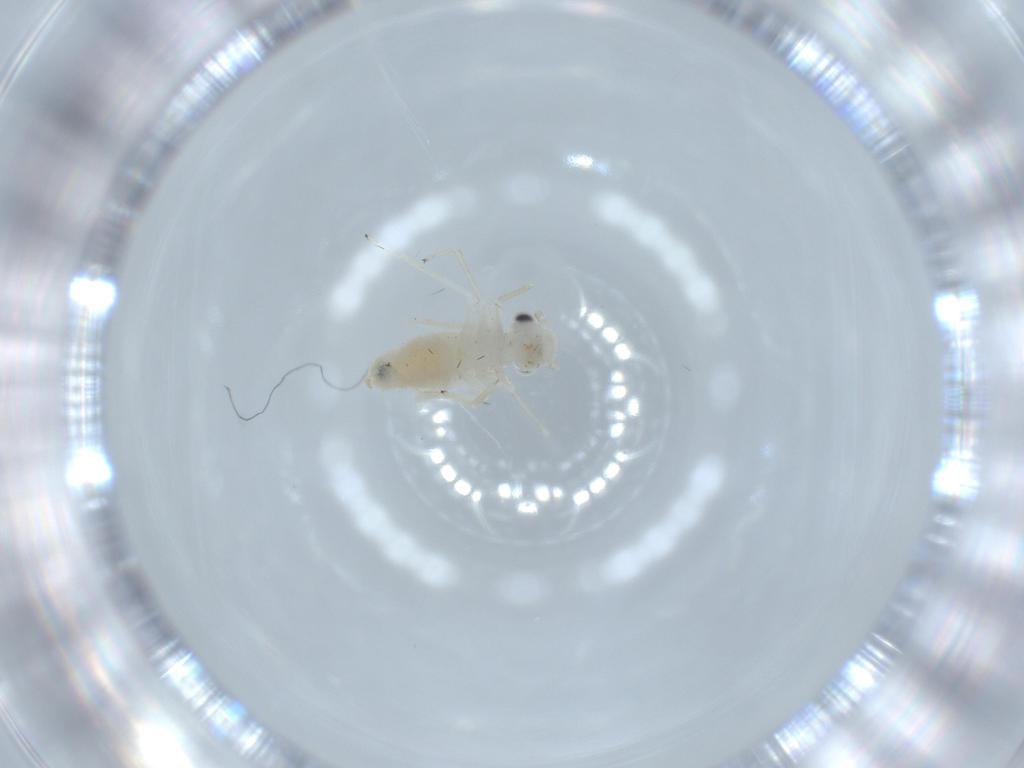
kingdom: Animalia
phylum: Arthropoda
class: Insecta
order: Psocodea
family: Caeciliusidae
